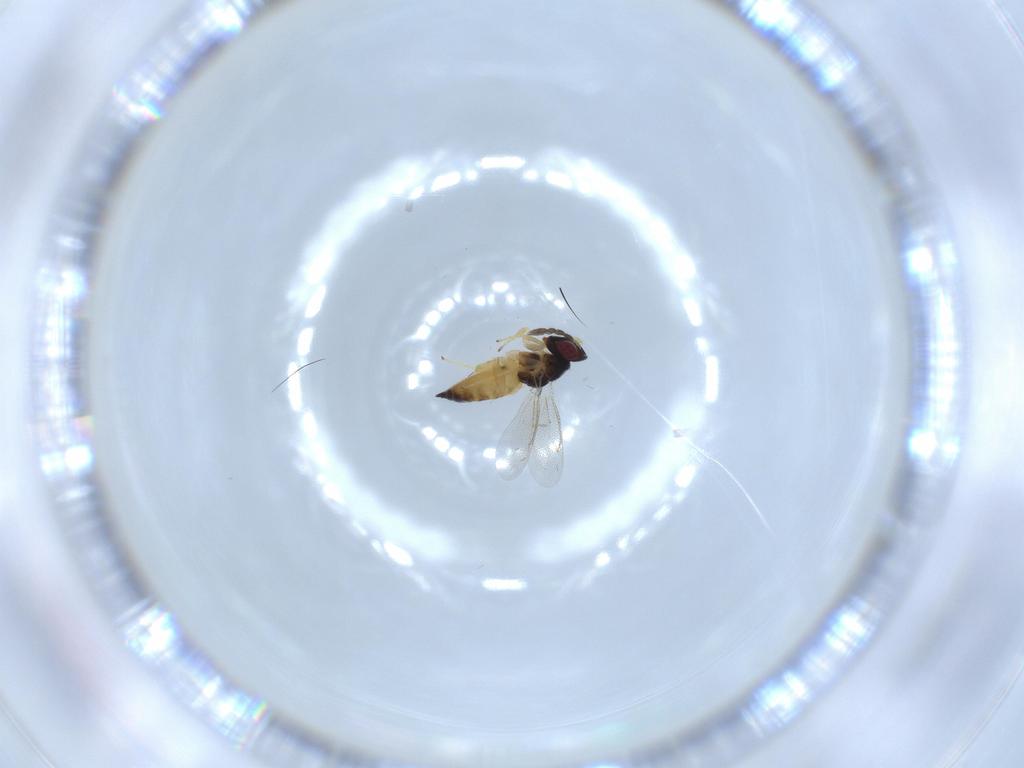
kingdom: Animalia
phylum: Arthropoda
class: Insecta
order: Hymenoptera
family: Eulophidae
